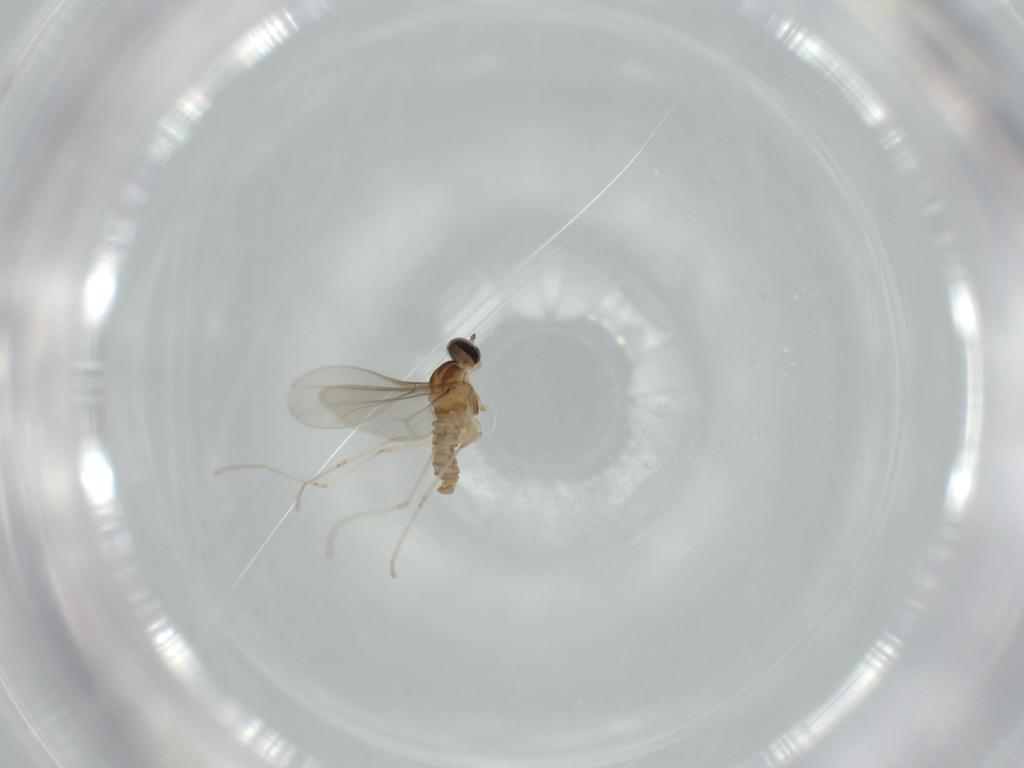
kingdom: Animalia
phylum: Arthropoda
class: Insecta
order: Diptera
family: Cecidomyiidae
